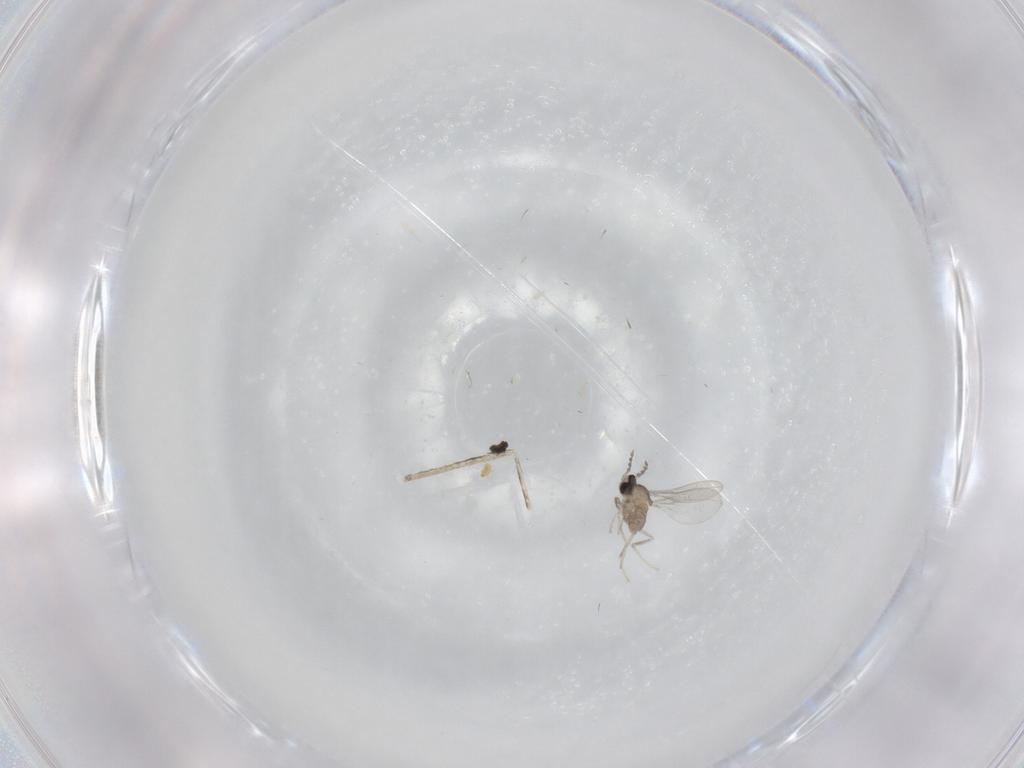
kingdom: Animalia
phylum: Arthropoda
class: Insecta
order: Diptera
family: Cecidomyiidae
